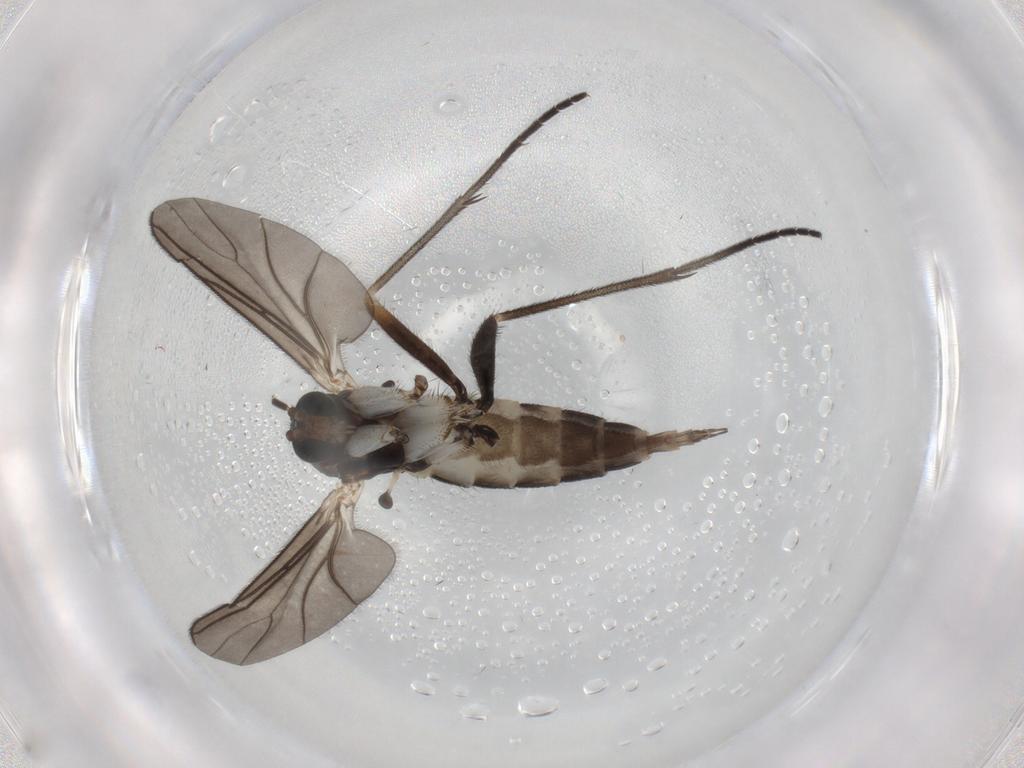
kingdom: Animalia
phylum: Arthropoda
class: Insecta
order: Diptera
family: Sciaridae
